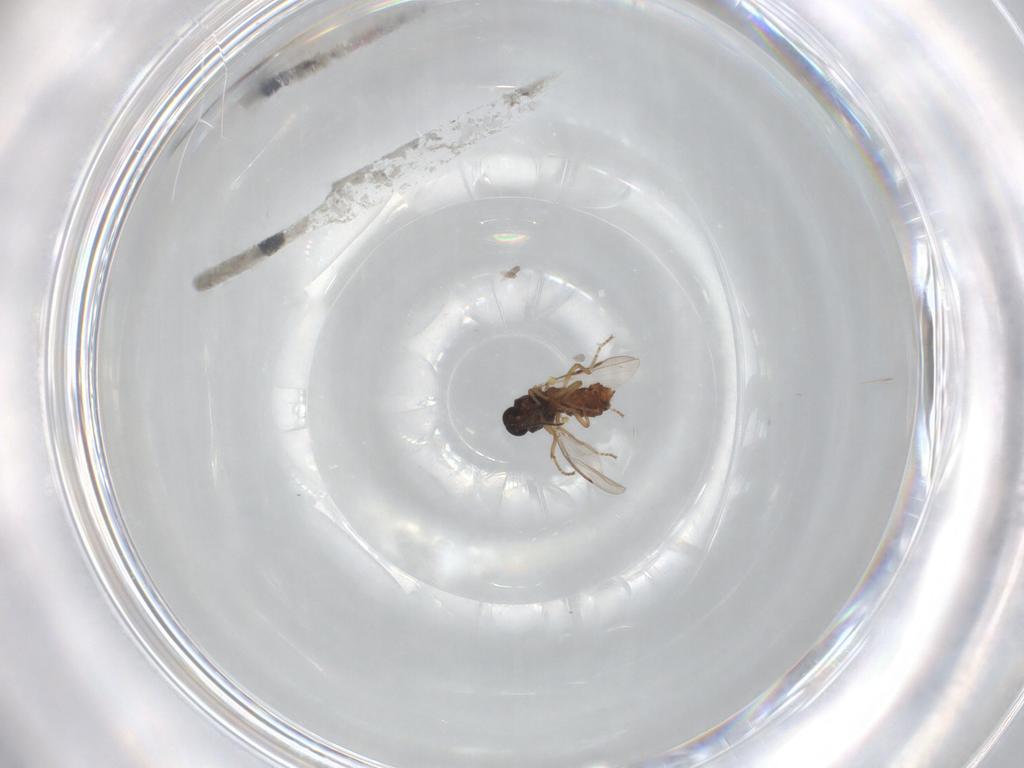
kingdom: Animalia
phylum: Arthropoda
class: Insecta
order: Diptera
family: Ceratopogonidae
